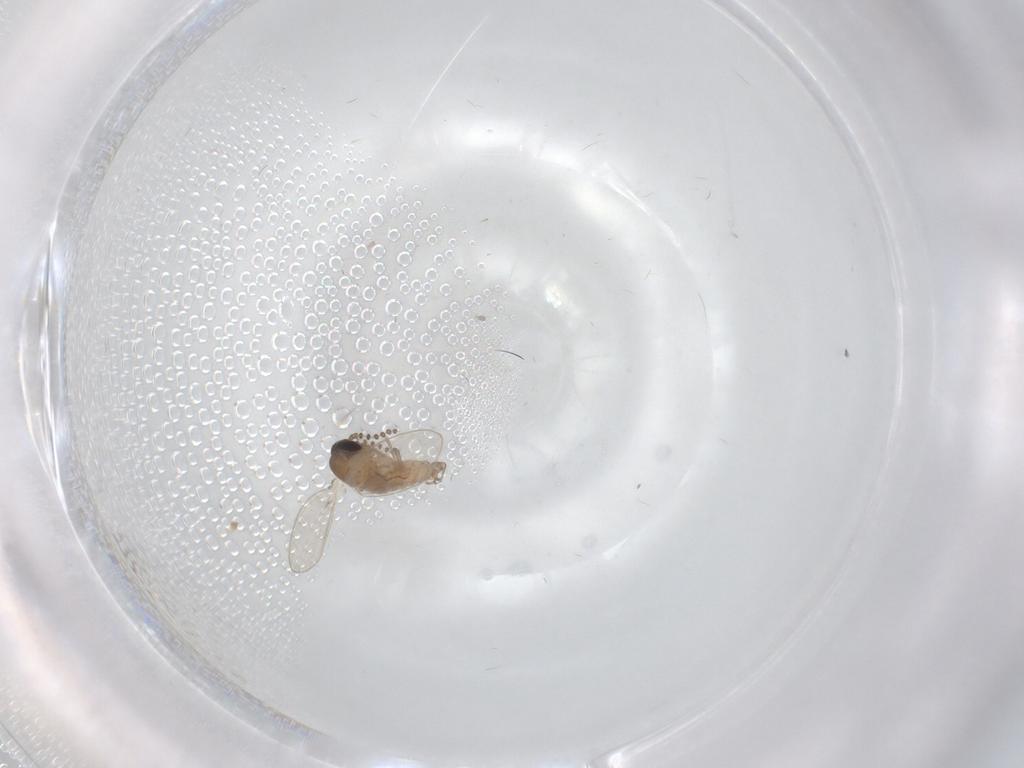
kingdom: Animalia
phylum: Arthropoda
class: Insecta
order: Diptera
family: Psychodidae
